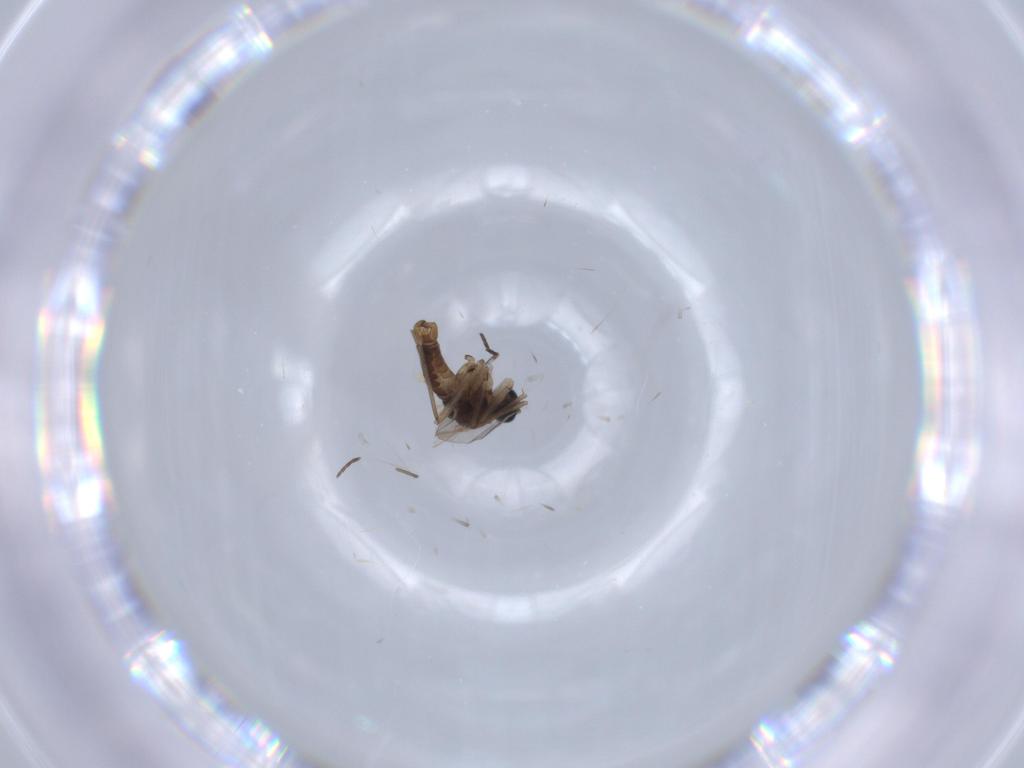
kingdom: Animalia
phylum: Arthropoda
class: Insecta
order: Diptera
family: Sciaridae
